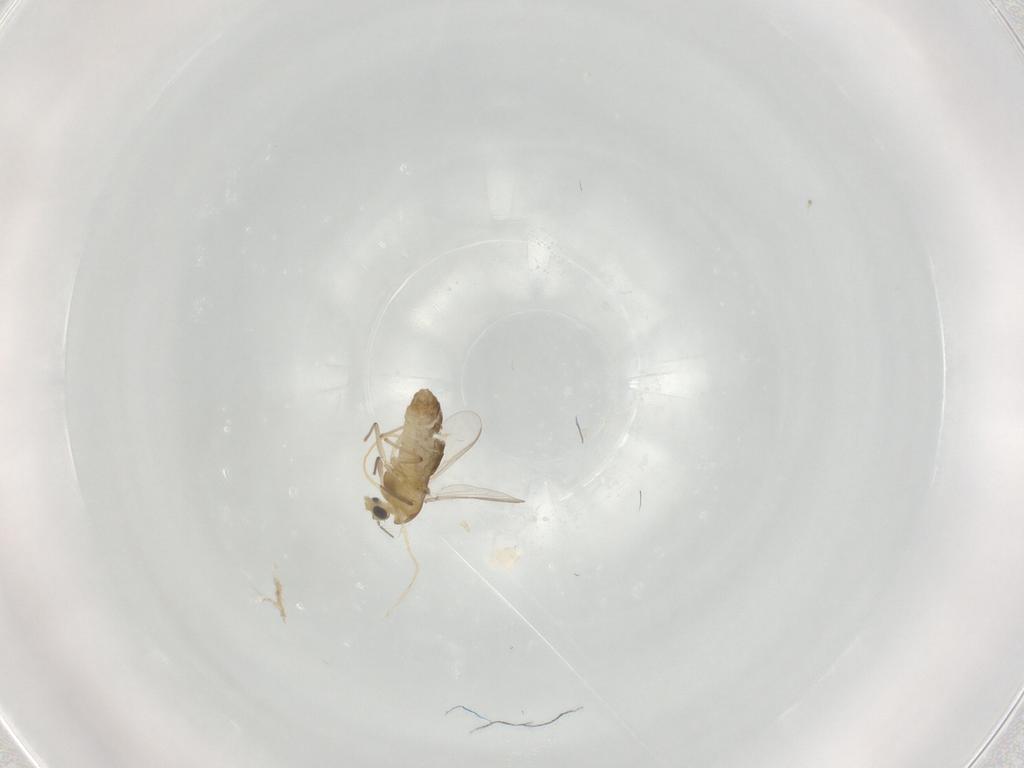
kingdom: Animalia
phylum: Arthropoda
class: Insecta
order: Diptera
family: Chironomidae
